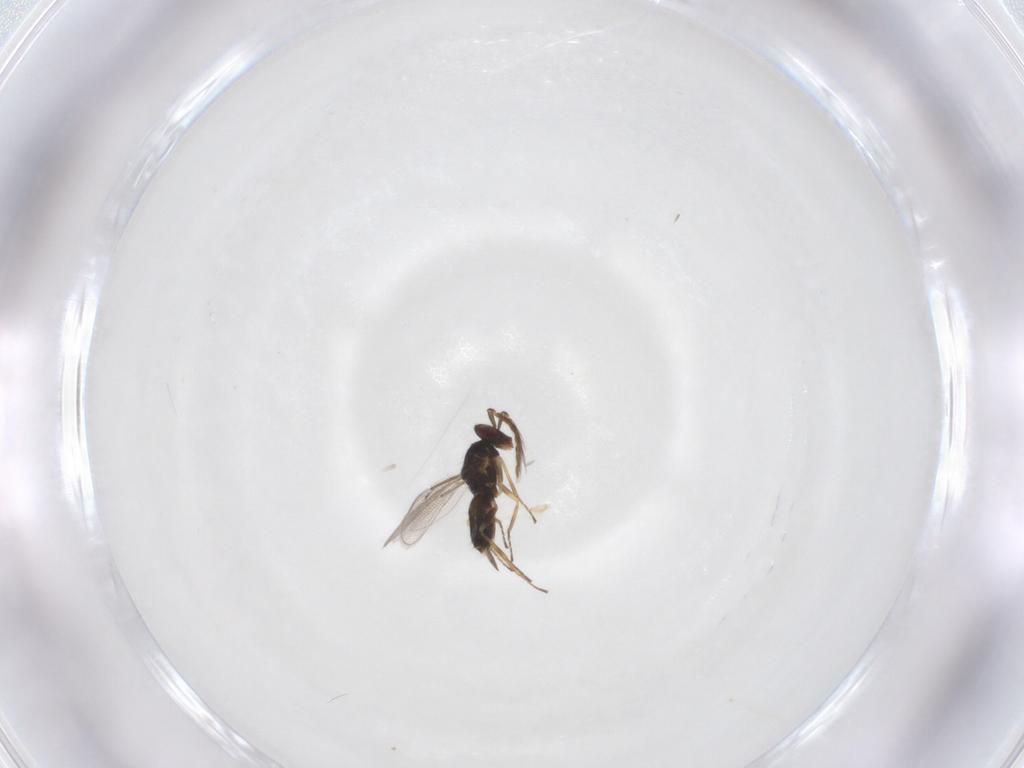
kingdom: Animalia
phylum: Arthropoda
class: Insecta
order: Hymenoptera
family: Eulophidae
